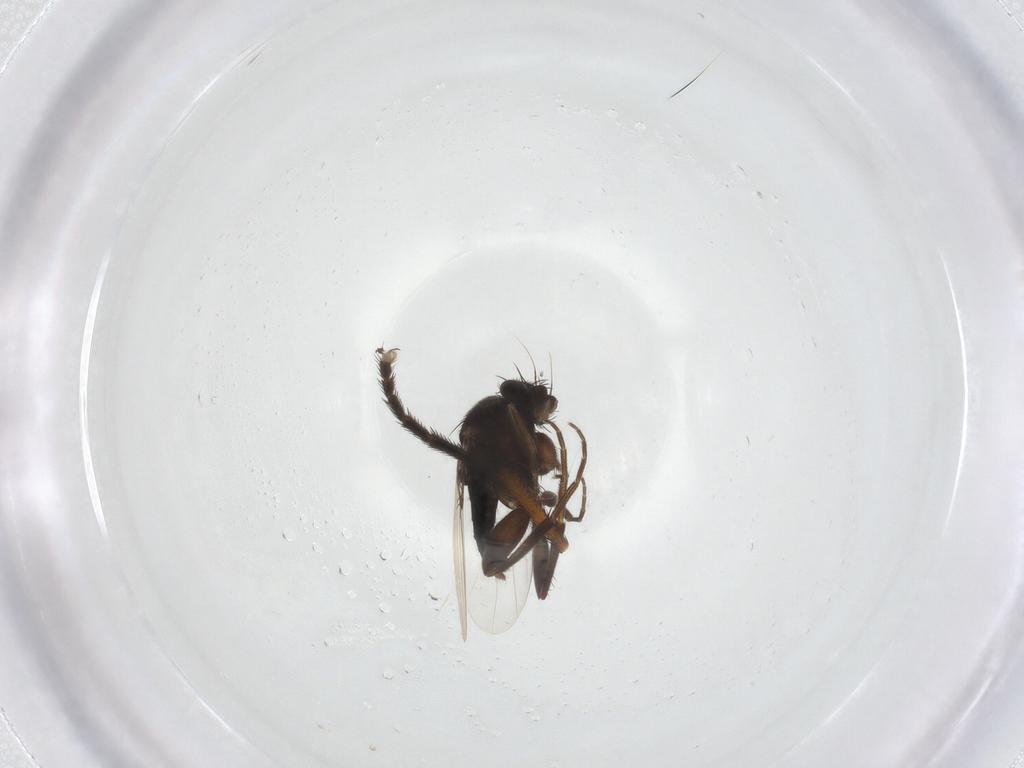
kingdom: Animalia
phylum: Arthropoda
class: Insecta
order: Diptera
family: Phoridae
